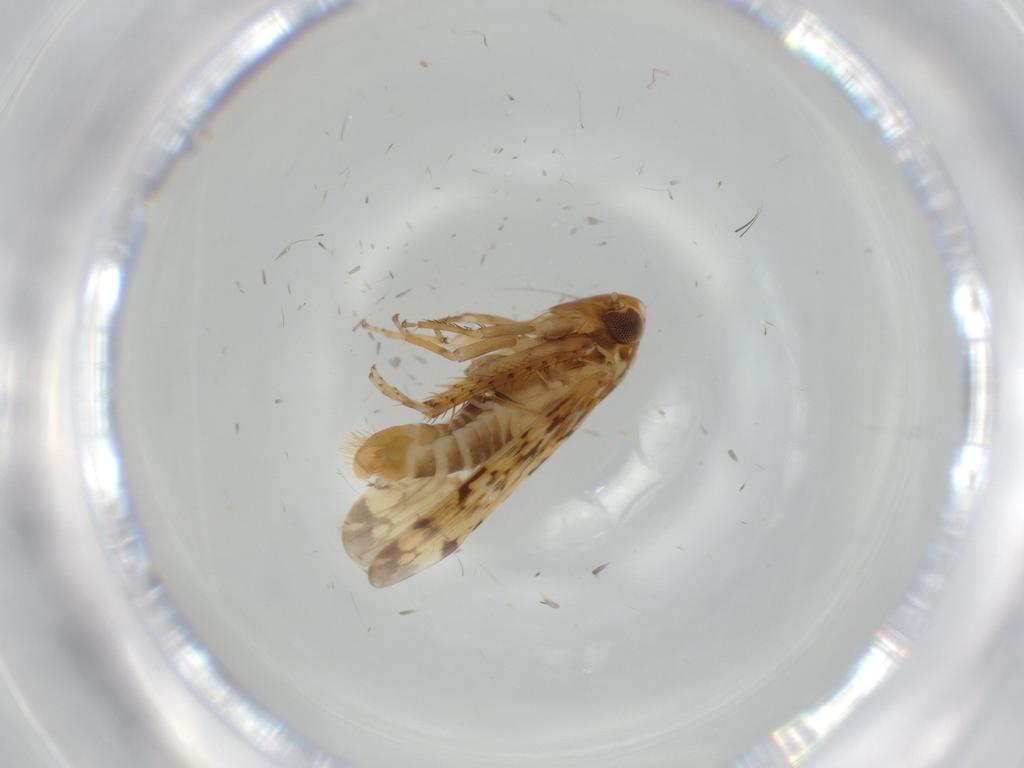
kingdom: Animalia
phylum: Arthropoda
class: Insecta
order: Hemiptera
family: Cicadellidae
